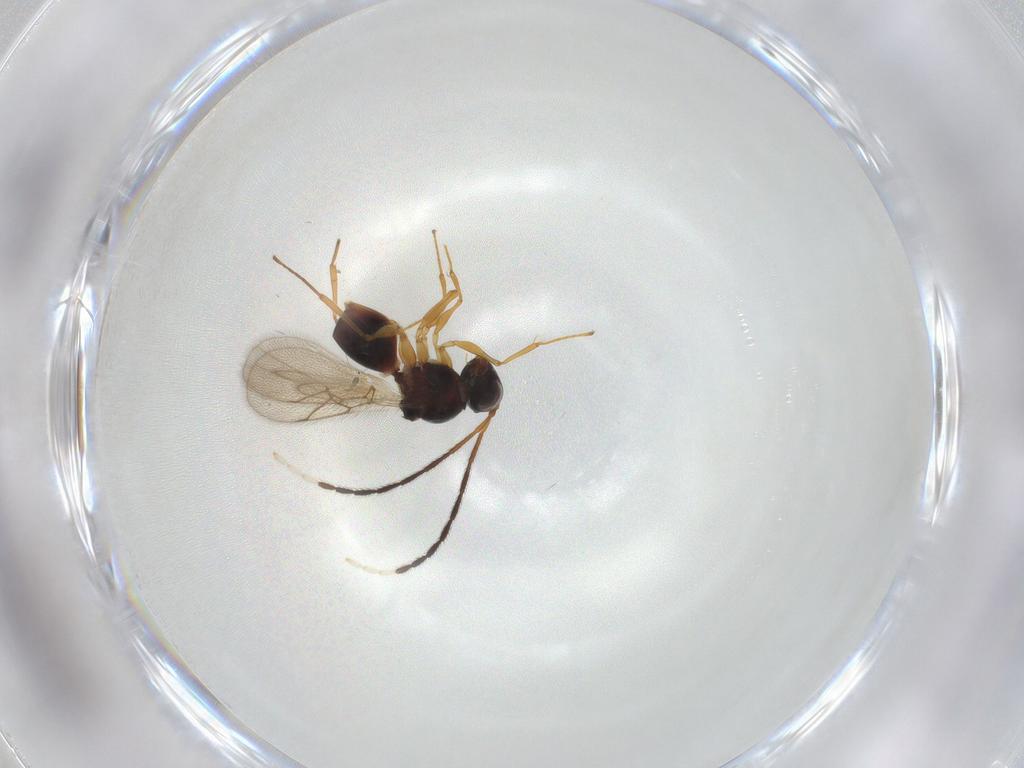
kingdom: Animalia
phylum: Arthropoda
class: Insecta
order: Hymenoptera
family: Figitidae
